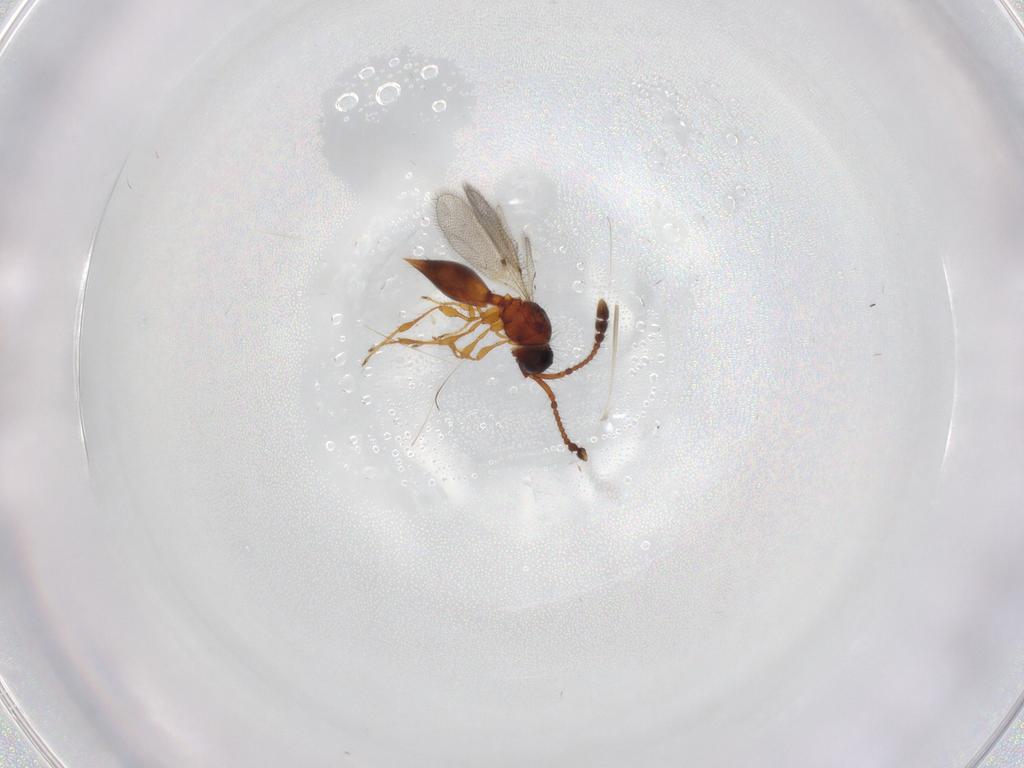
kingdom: Animalia
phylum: Arthropoda
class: Insecta
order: Hymenoptera
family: Diapriidae
